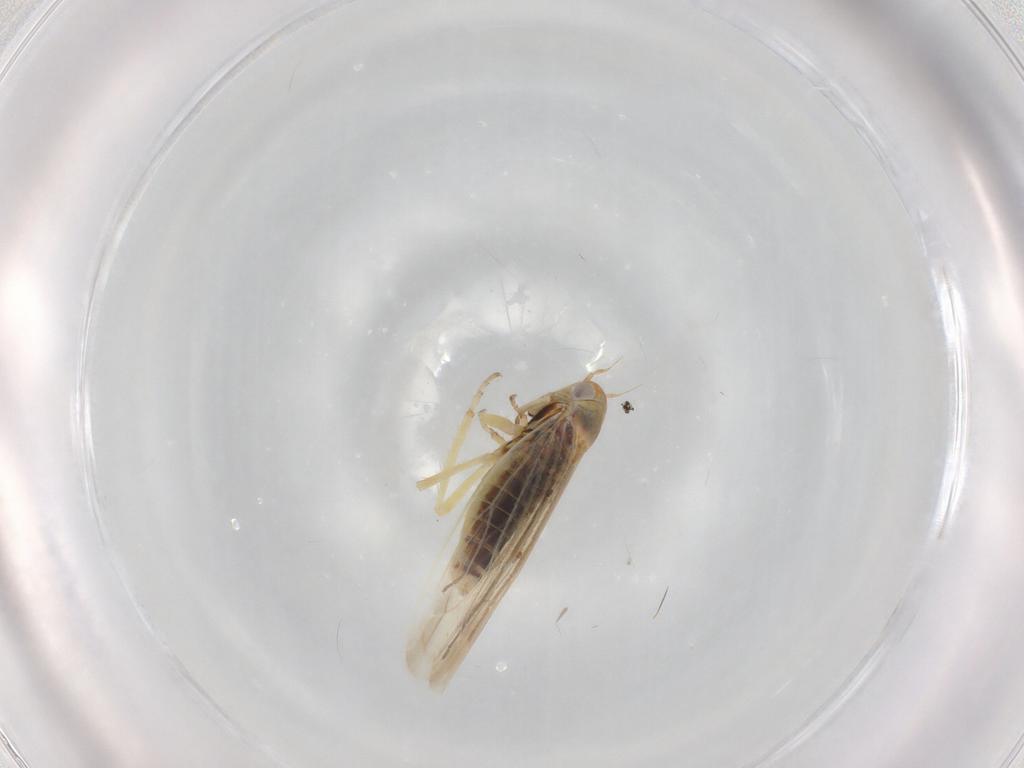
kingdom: Animalia
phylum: Arthropoda
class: Insecta
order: Hemiptera
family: Cicadellidae
